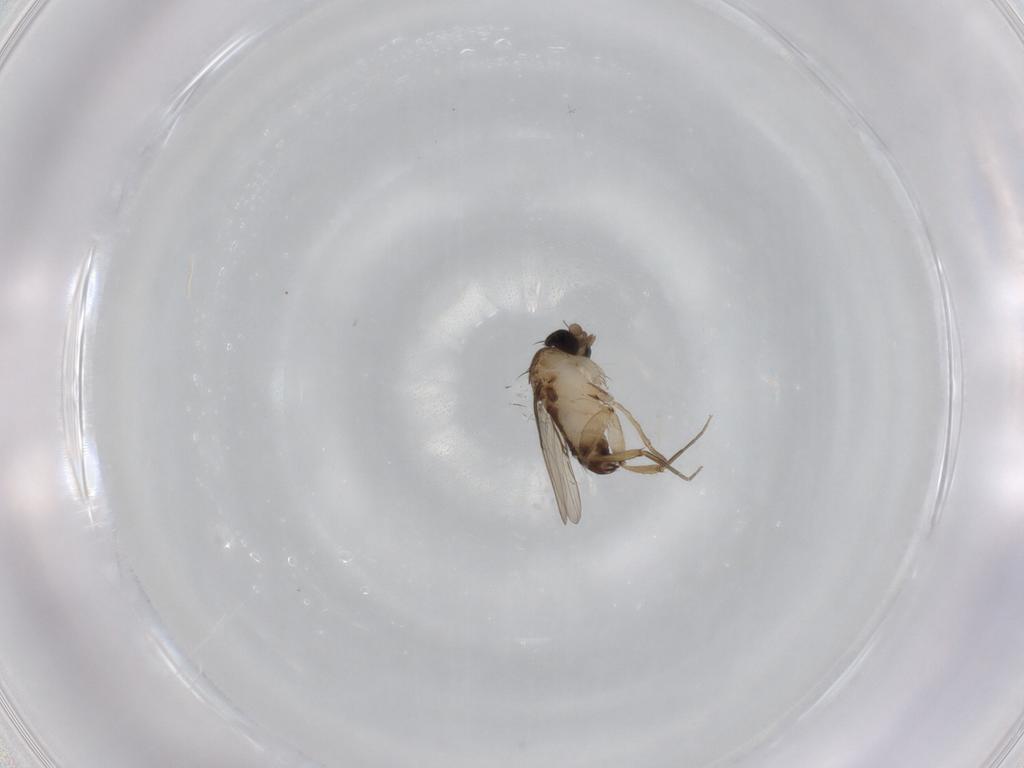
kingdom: Animalia
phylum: Arthropoda
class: Insecta
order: Diptera
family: Phoridae
